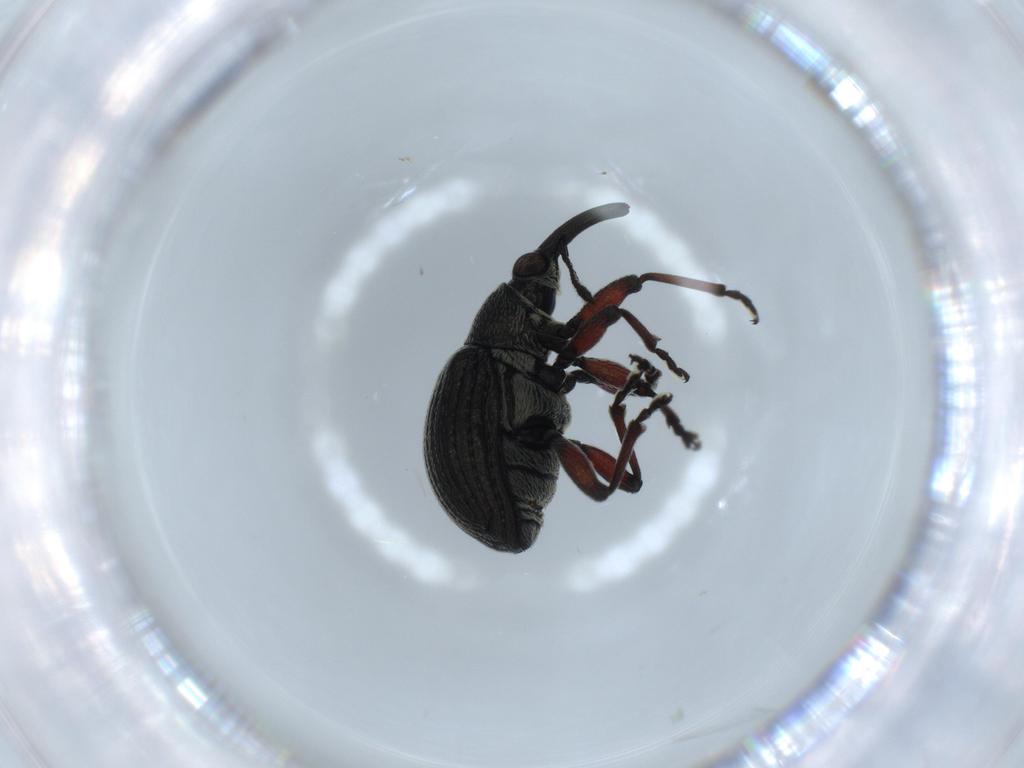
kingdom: Animalia
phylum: Arthropoda
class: Insecta
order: Coleoptera
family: Brentidae
